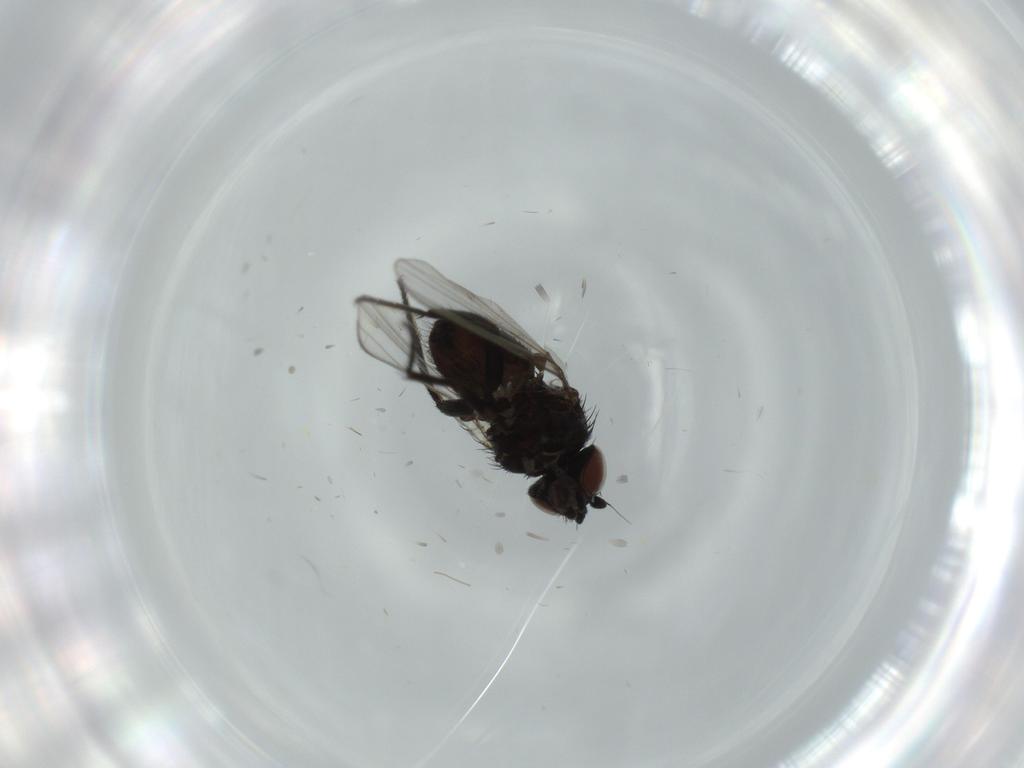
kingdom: Animalia
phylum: Arthropoda
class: Insecta
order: Diptera
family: Milichiidae
